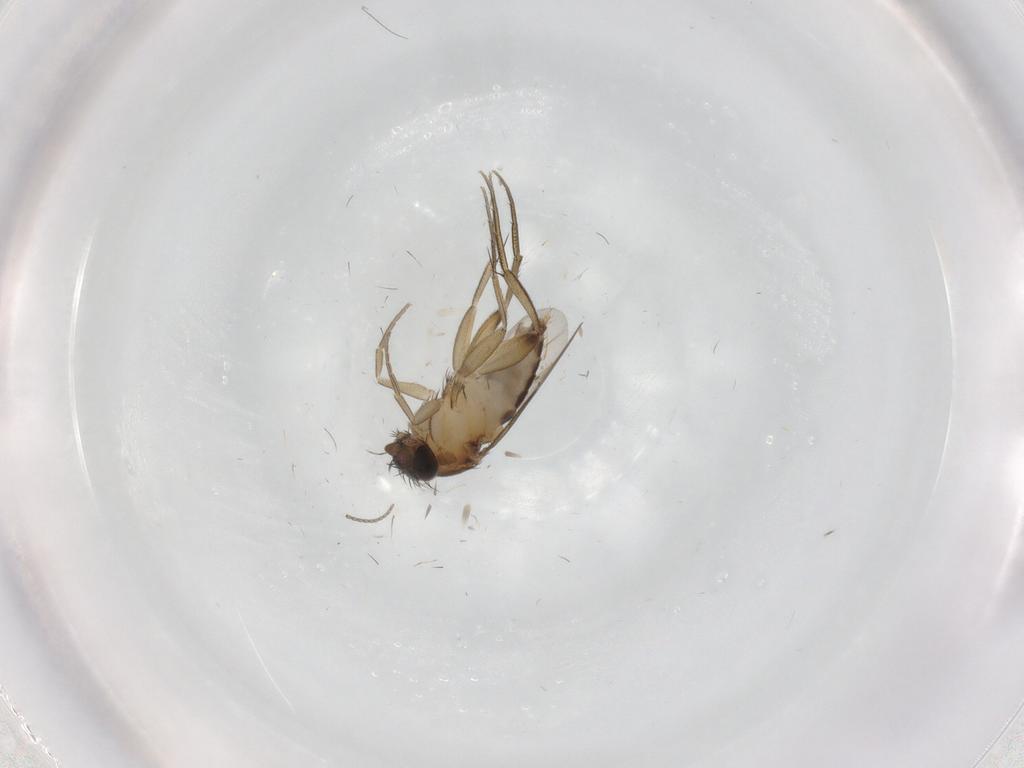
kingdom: Animalia
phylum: Arthropoda
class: Insecta
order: Diptera
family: Phoridae
